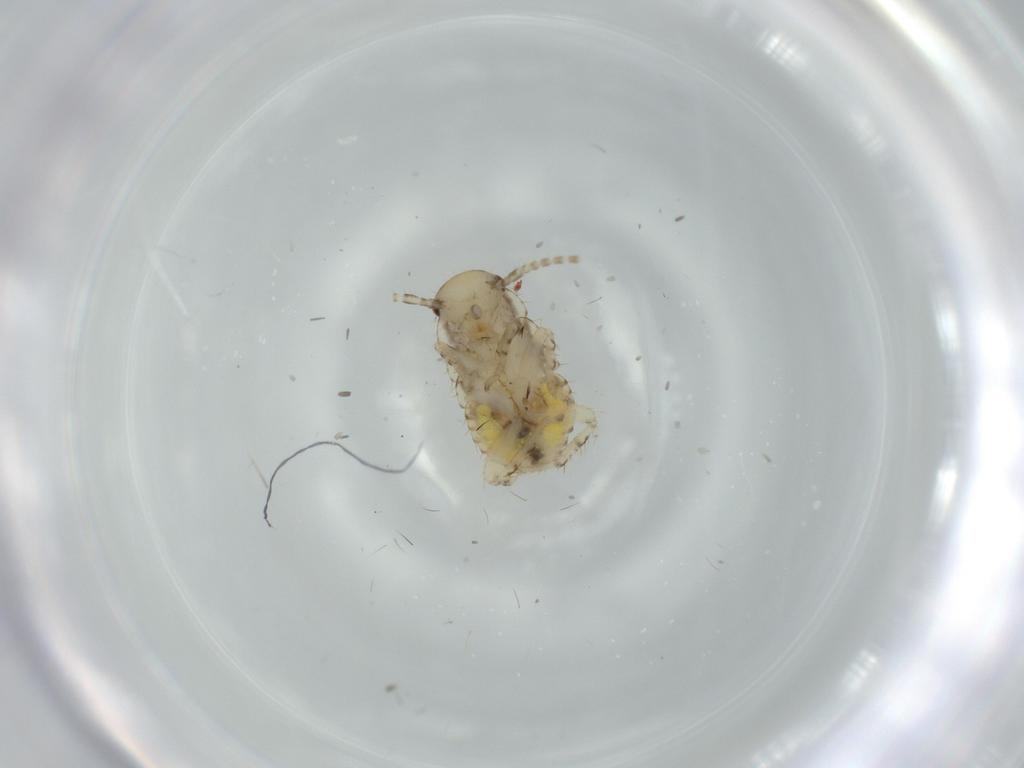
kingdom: Animalia
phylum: Arthropoda
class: Insecta
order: Blattodea
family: Ectobiidae
